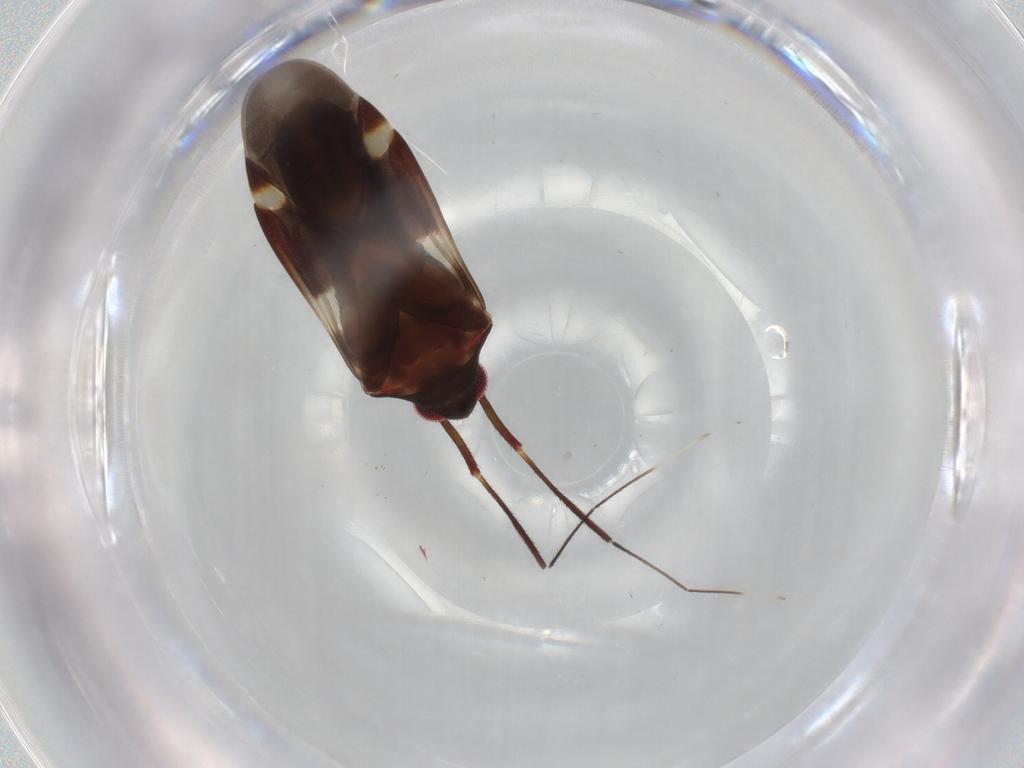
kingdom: Animalia
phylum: Arthropoda
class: Insecta
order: Hemiptera
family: Miridae
